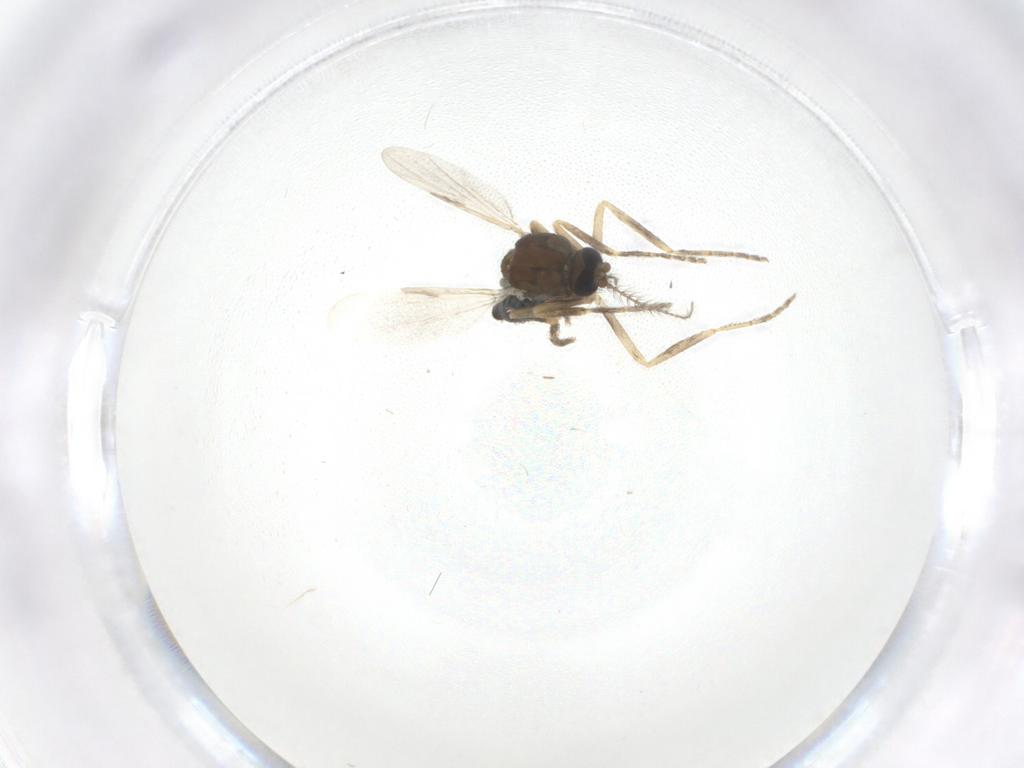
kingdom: Animalia
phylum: Arthropoda
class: Insecta
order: Diptera
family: Ceratopogonidae
